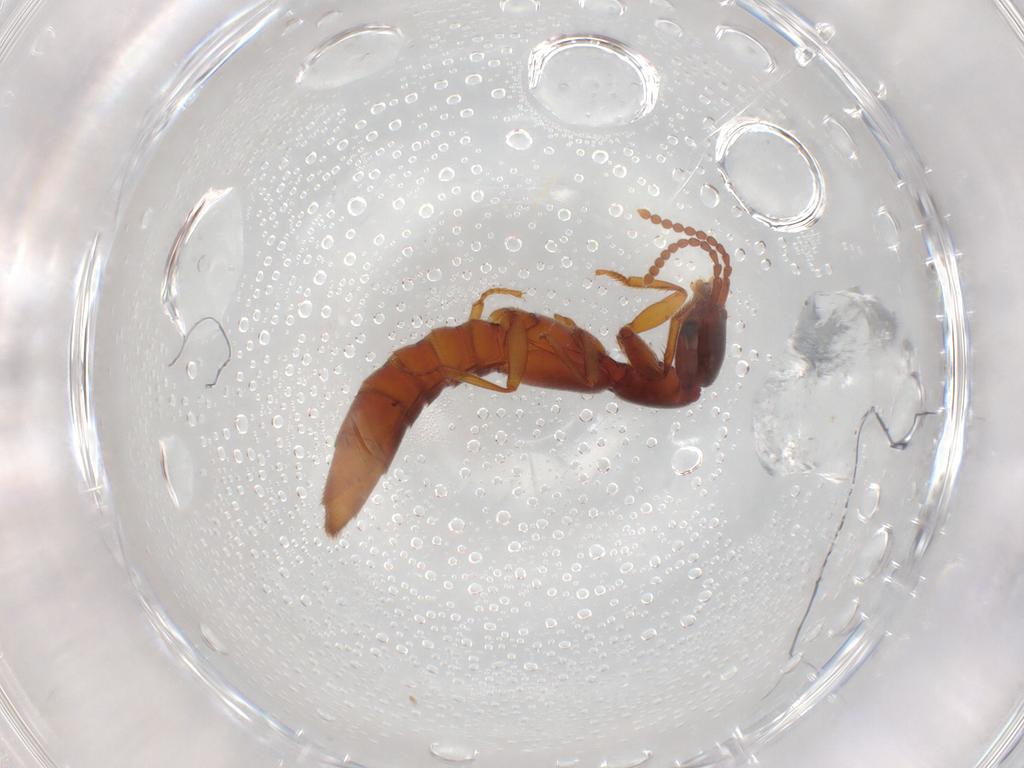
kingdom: Animalia
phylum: Arthropoda
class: Insecta
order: Coleoptera
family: Staphylinidae
